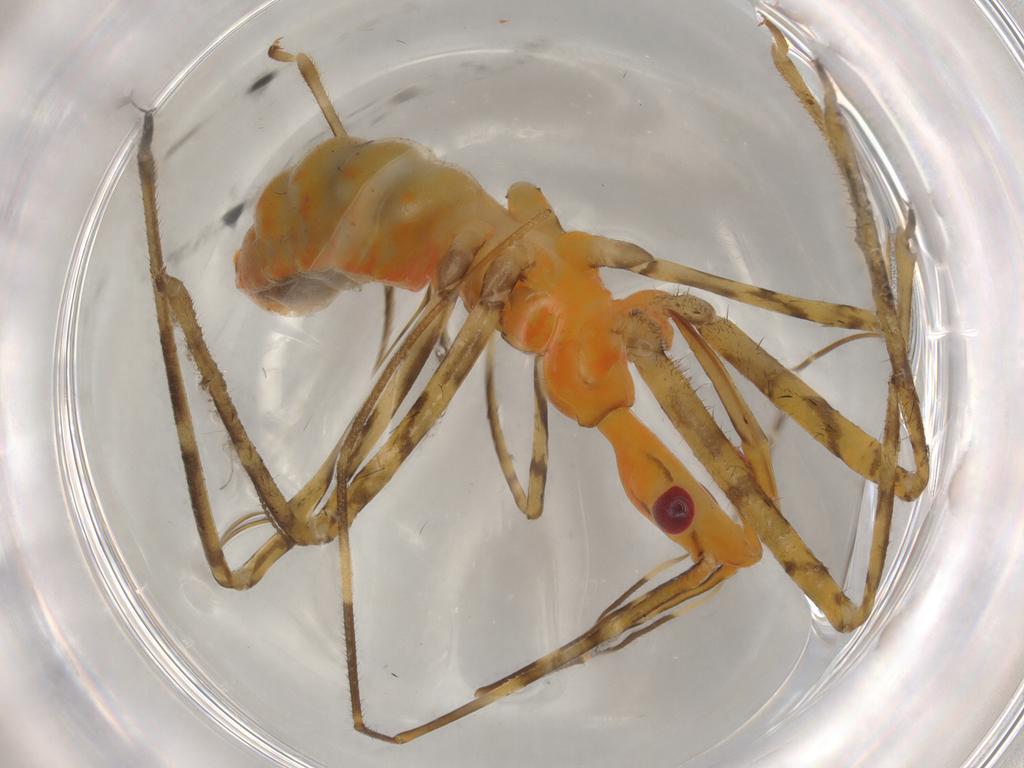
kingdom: Animalia
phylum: Arthropoda
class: Insecta
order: Hemiptera
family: Reduviidae
